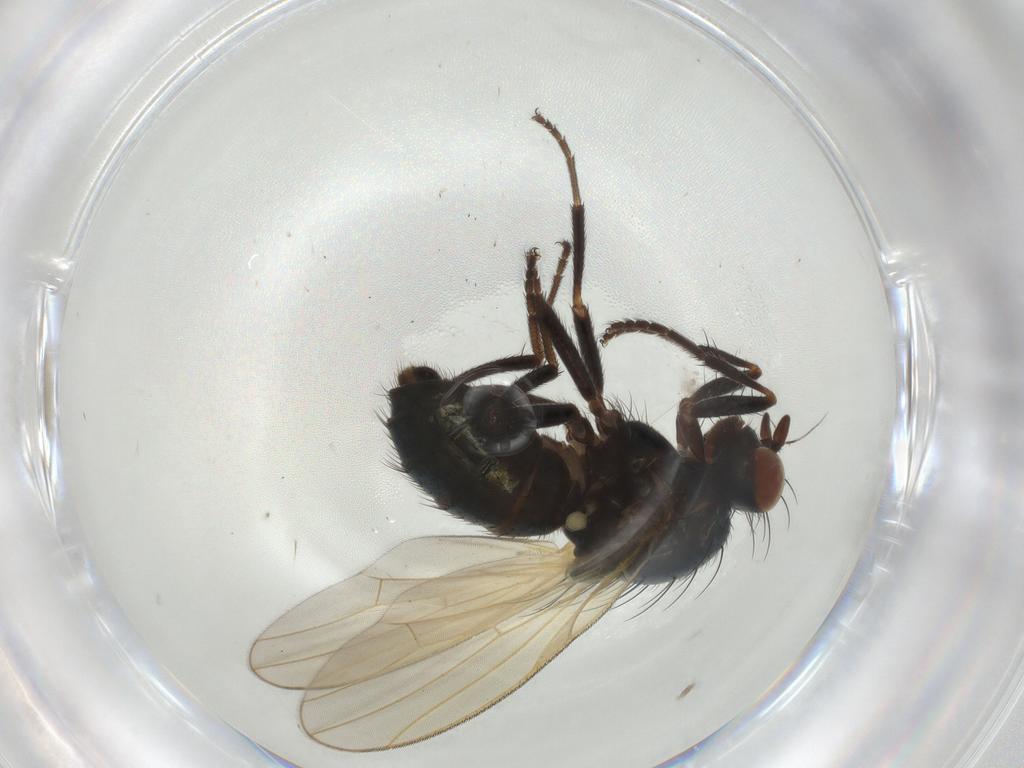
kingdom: Animalia
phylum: Arthropoda
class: Insecta
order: Diptera
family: Lauxaniidae
